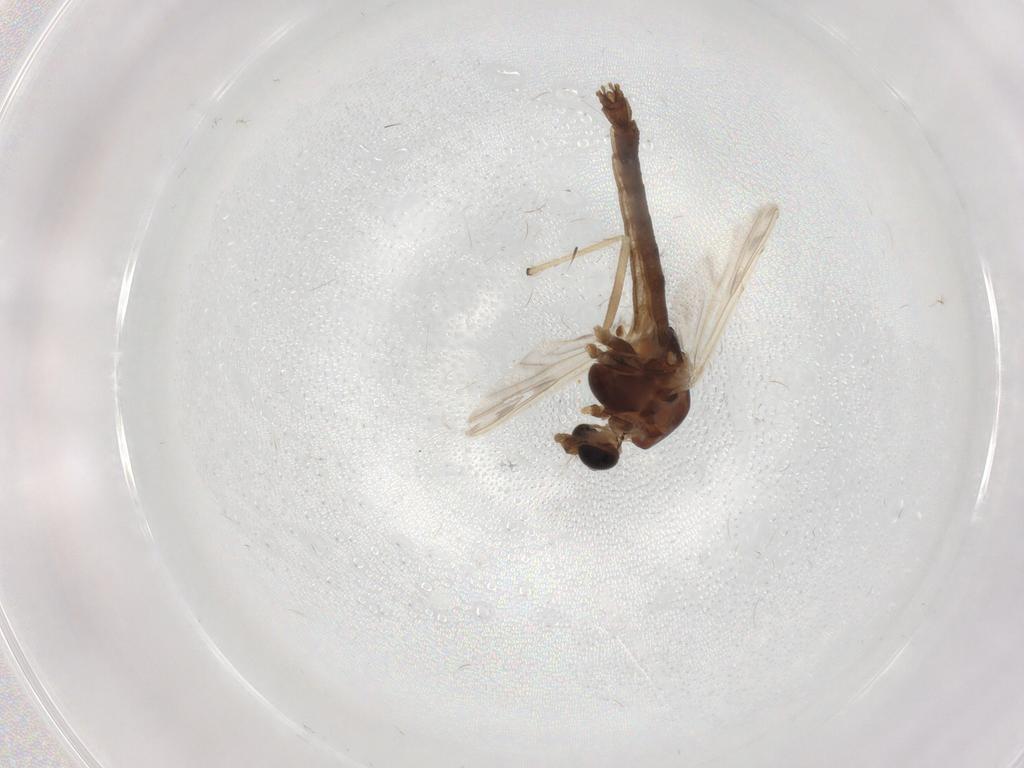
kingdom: Animalia
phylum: Arthropoda
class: Insecta
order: Diptera
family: Chironomidae
